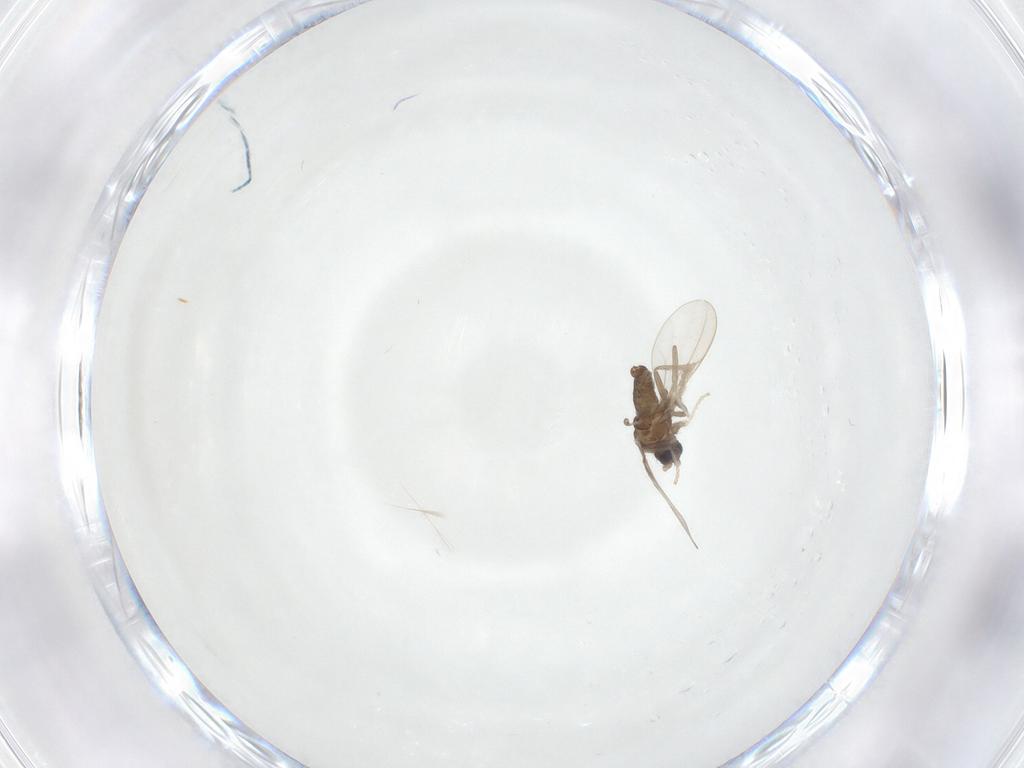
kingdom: Animalia
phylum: Arthropoda
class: Insecta
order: Diptera
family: Cecidomyiidae
